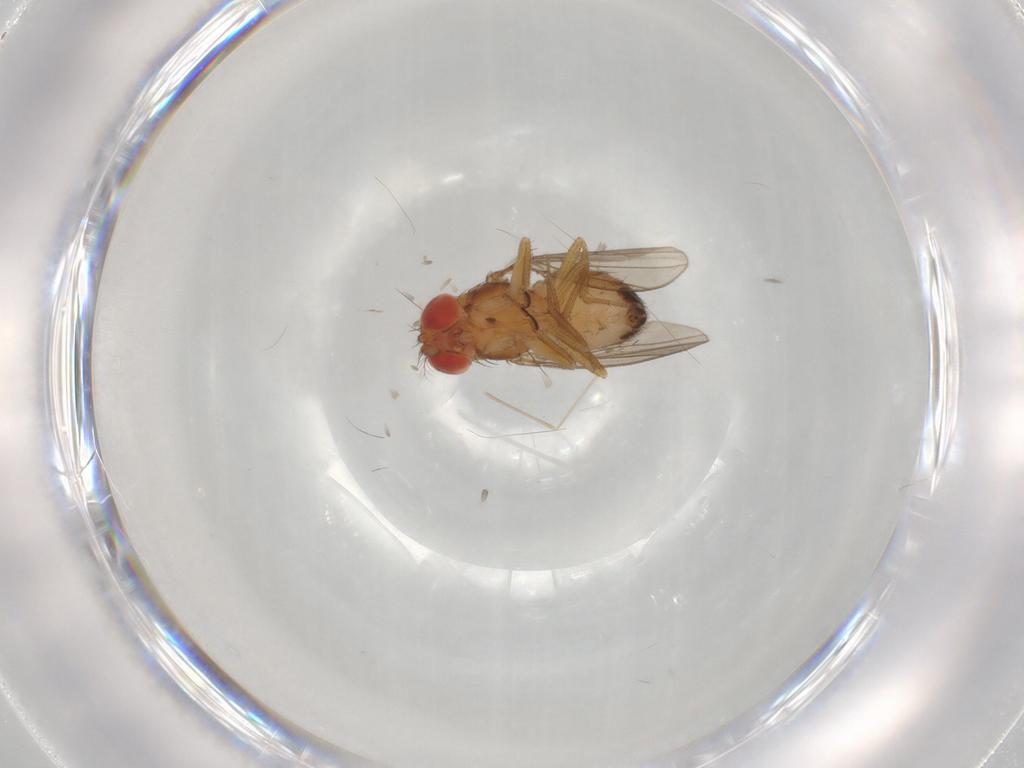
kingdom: Animalia
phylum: Arthropoda
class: Insecta
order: Diptera
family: Drosophilidae
